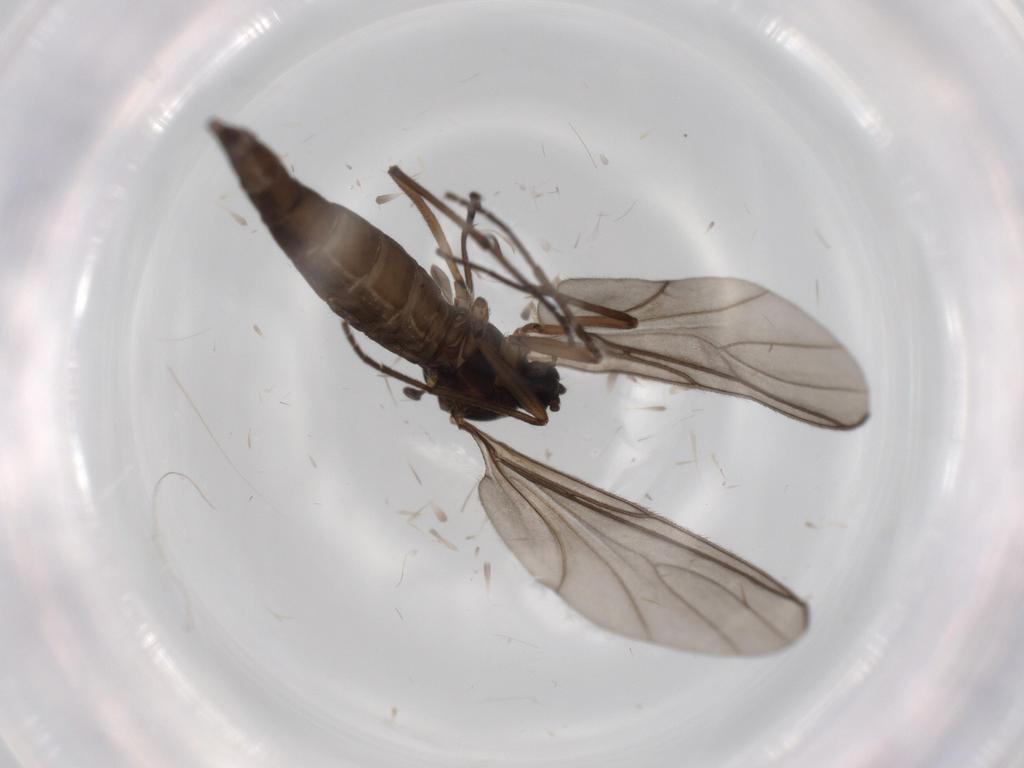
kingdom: Animalia
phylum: Arthropoda
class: Insecta
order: Diptera
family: Sciaridae
